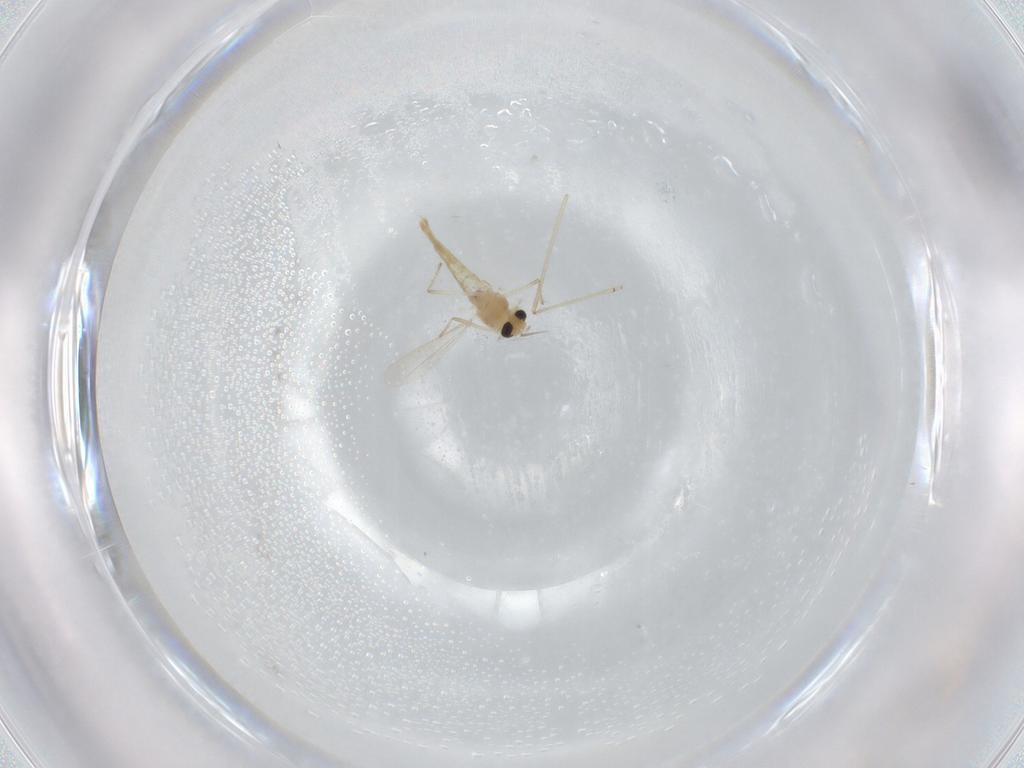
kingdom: Animalia
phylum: Arthropoda
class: Insecta
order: Diptera
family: Chironomidae
